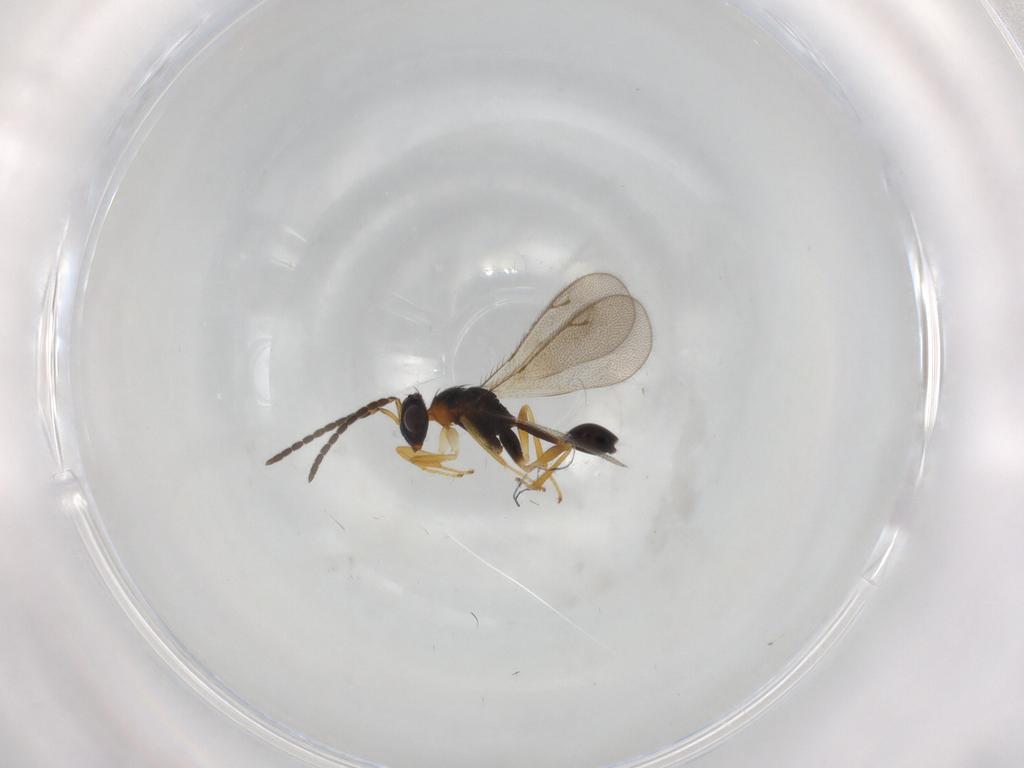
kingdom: Animalia
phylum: Arthropoda
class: Insecta
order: Hymenoptera
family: Diparidae
